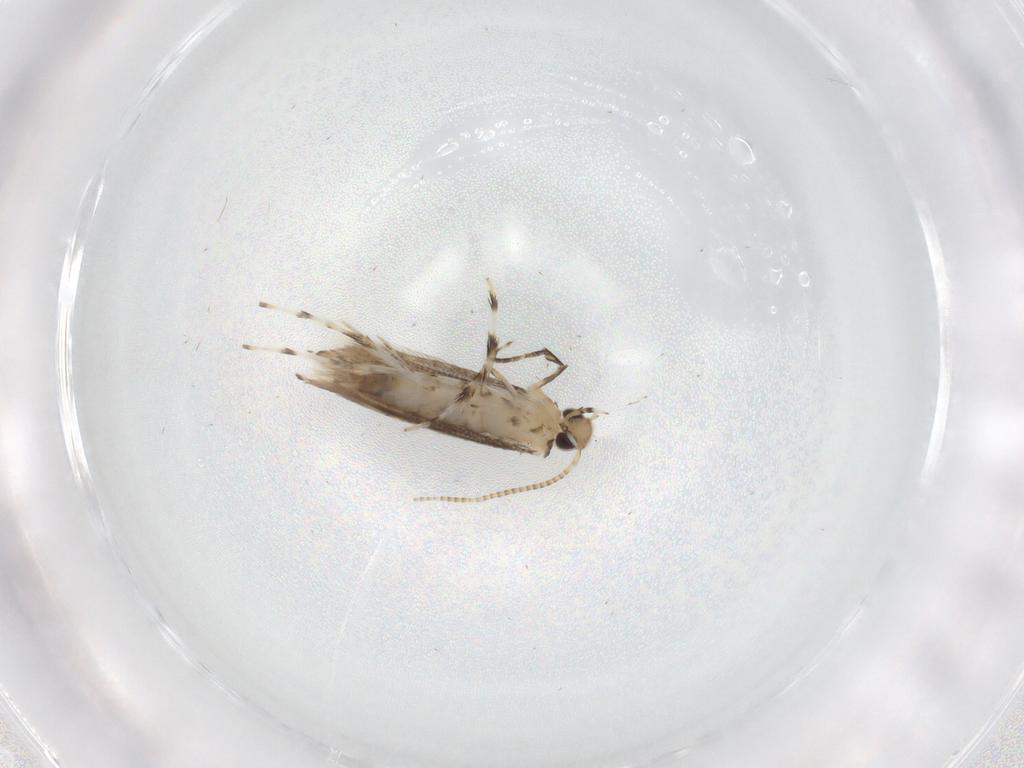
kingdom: Animalia
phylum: Arthropoda
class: Insecta
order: Lepidoptera
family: Gracillariidae
